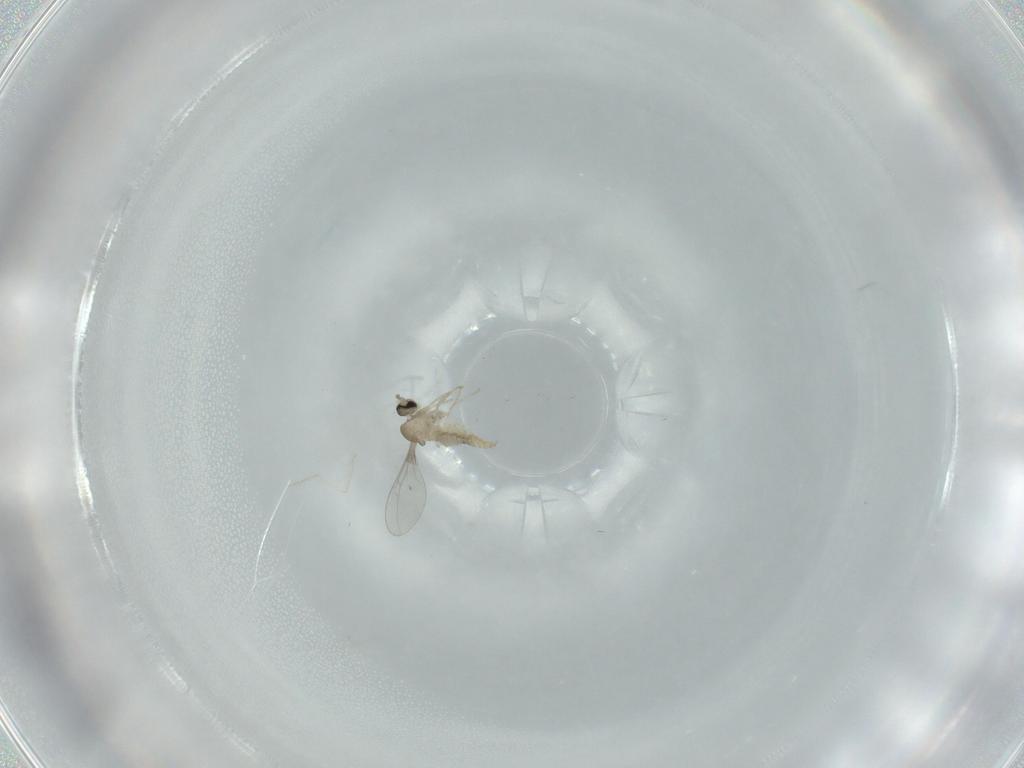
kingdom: Animalia
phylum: Arthropoda
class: Insecta
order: Diptera
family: Cecidomyiidae
